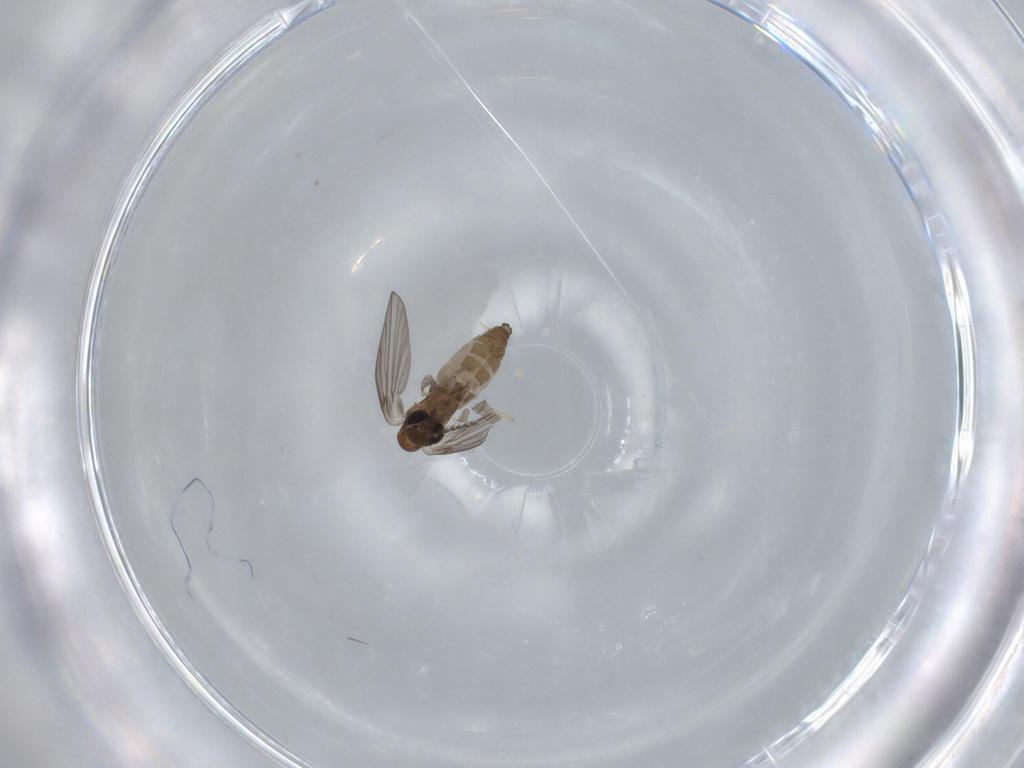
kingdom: Animalia
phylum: Arthropoda
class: Insecta
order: Diptera
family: Psychodidae
